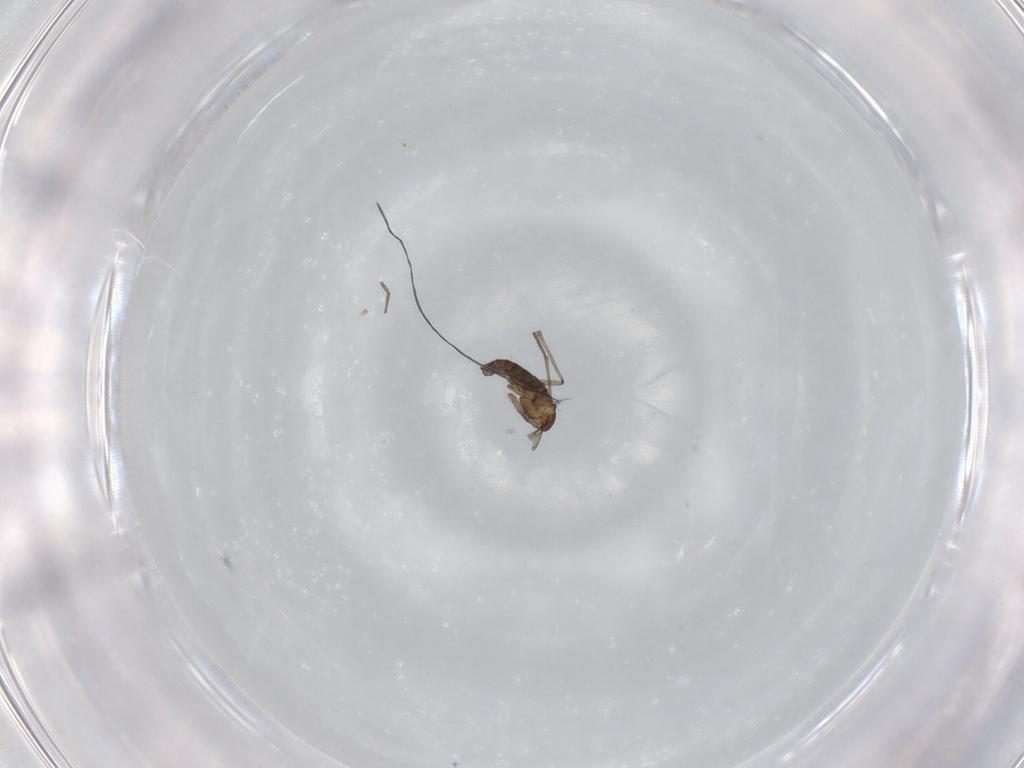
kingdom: Animalia
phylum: Arthropoda
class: Insecta
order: Diptera
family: Sciaridae
